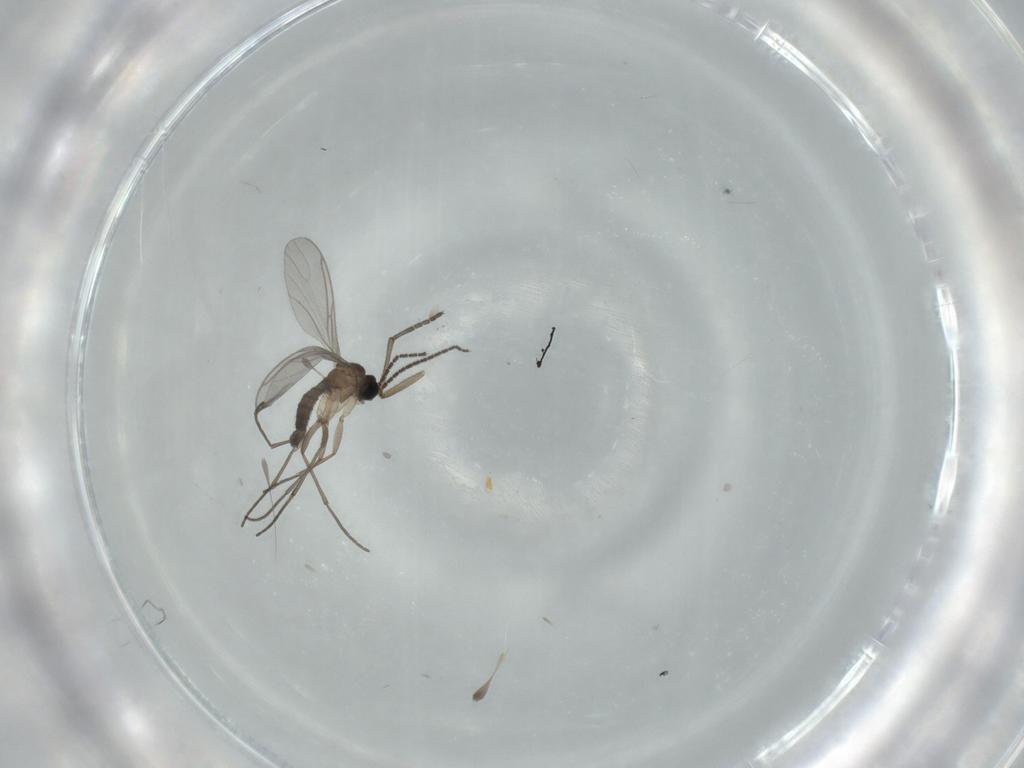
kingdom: Animalia
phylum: Arthropoda
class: Insecta
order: Diptera
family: Sciaridae
